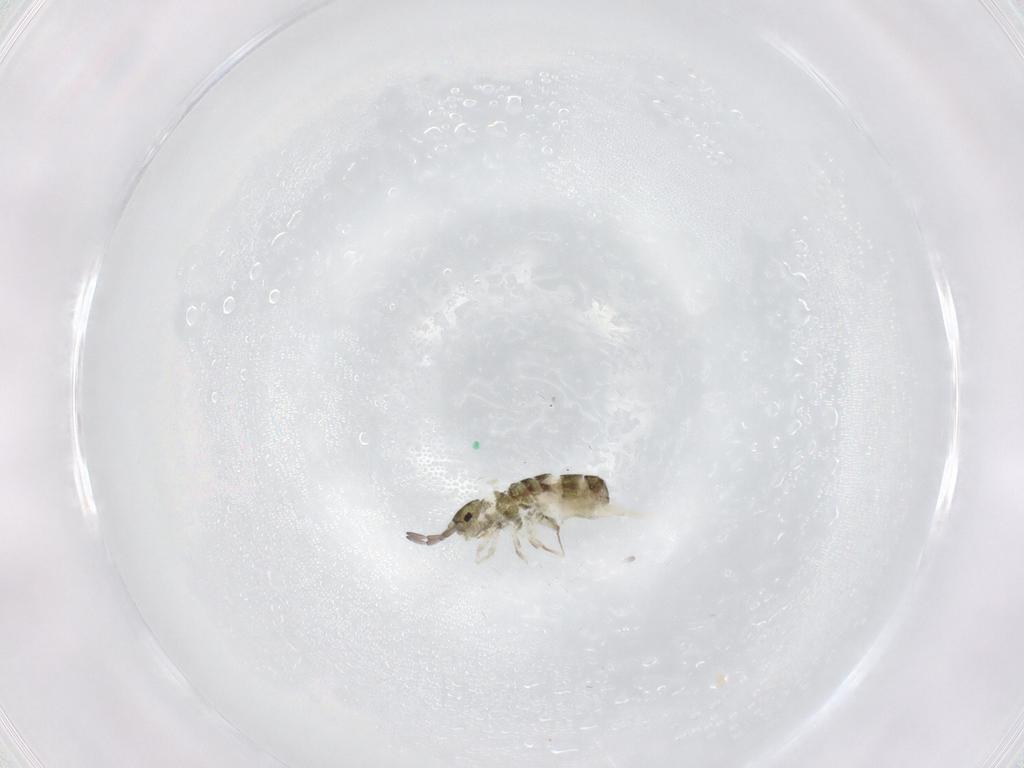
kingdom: Animalia
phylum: Arthropoda
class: Collembola
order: Entomobryomorpha
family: Isotomidae
